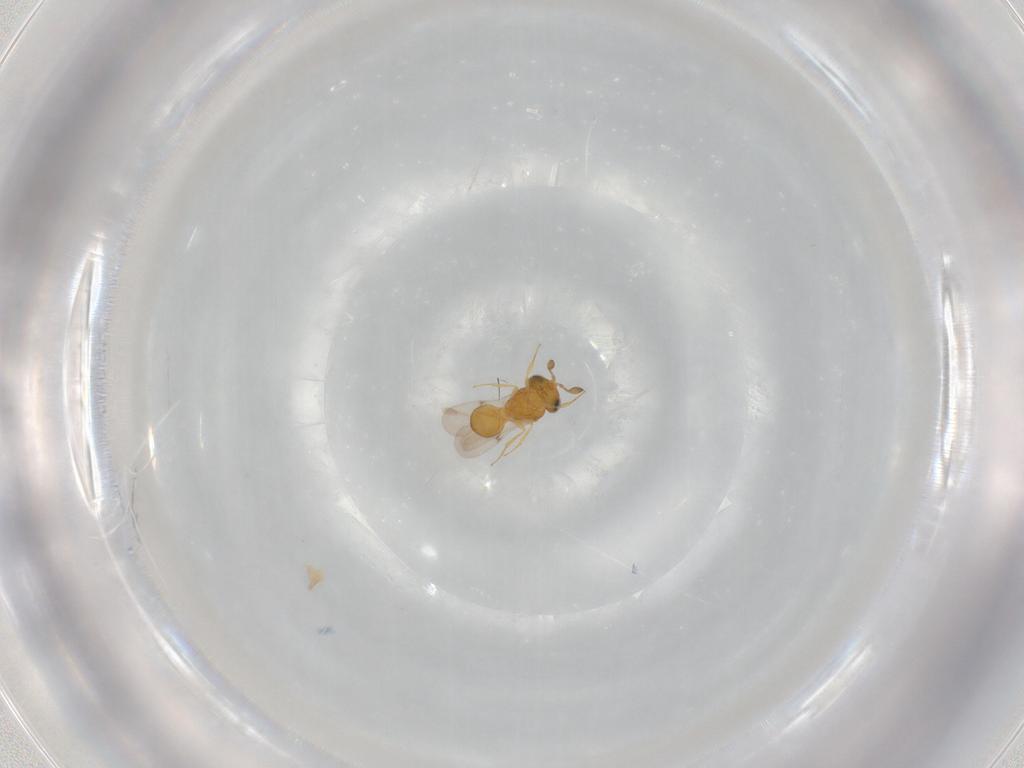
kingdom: Animalia
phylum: Arthropoda
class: Insecta
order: Hymenoptera
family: Scelionidae
